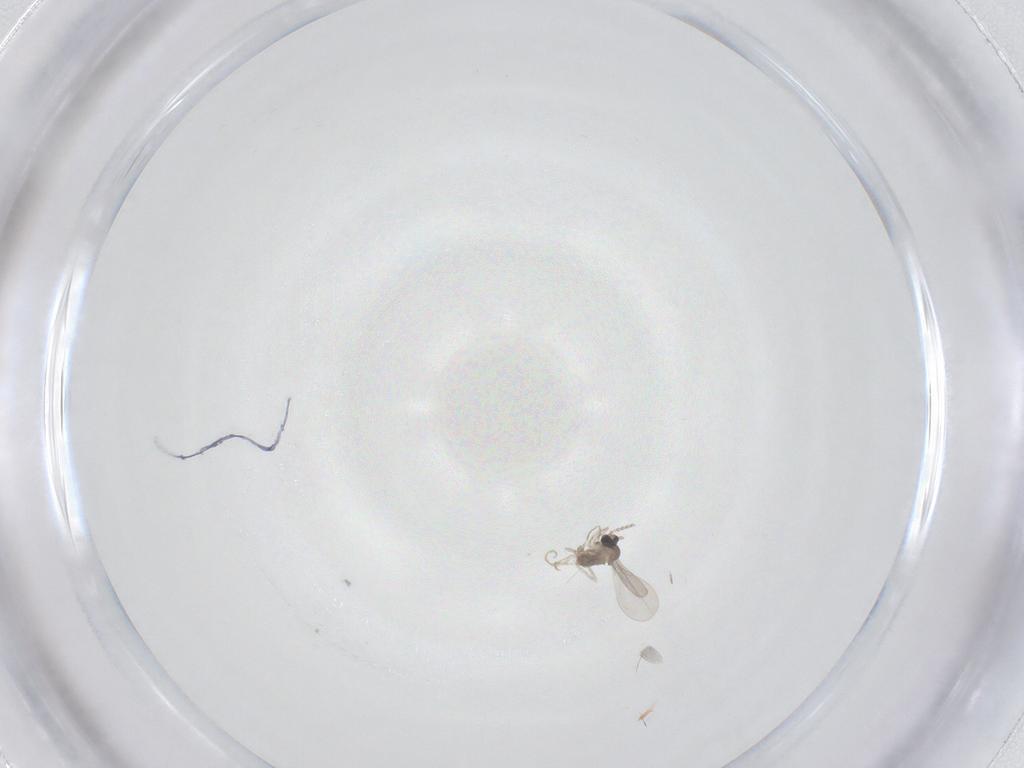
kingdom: Animalia
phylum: Arthropoda
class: Insecta
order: Diptera
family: Cecidomyiidae
